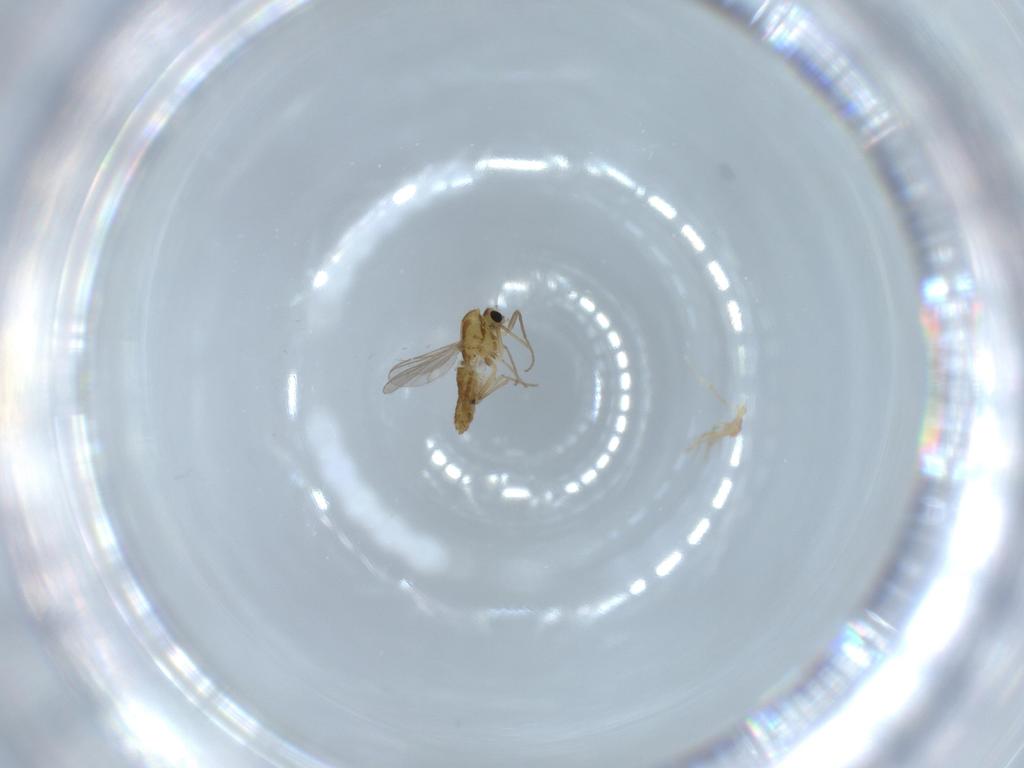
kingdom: Animalia
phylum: Arthropoda
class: Insecta
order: Diptera
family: Chironomidae
